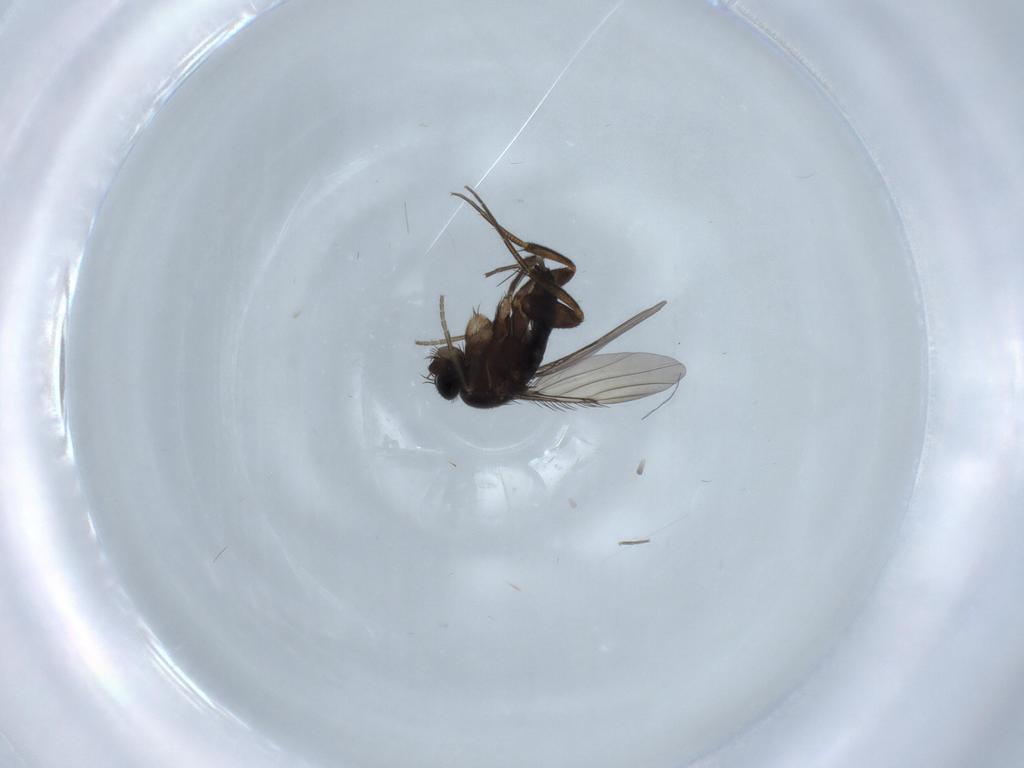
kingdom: Animalia
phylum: Arthropoda
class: Insecta
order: Diptera
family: Phoridae
